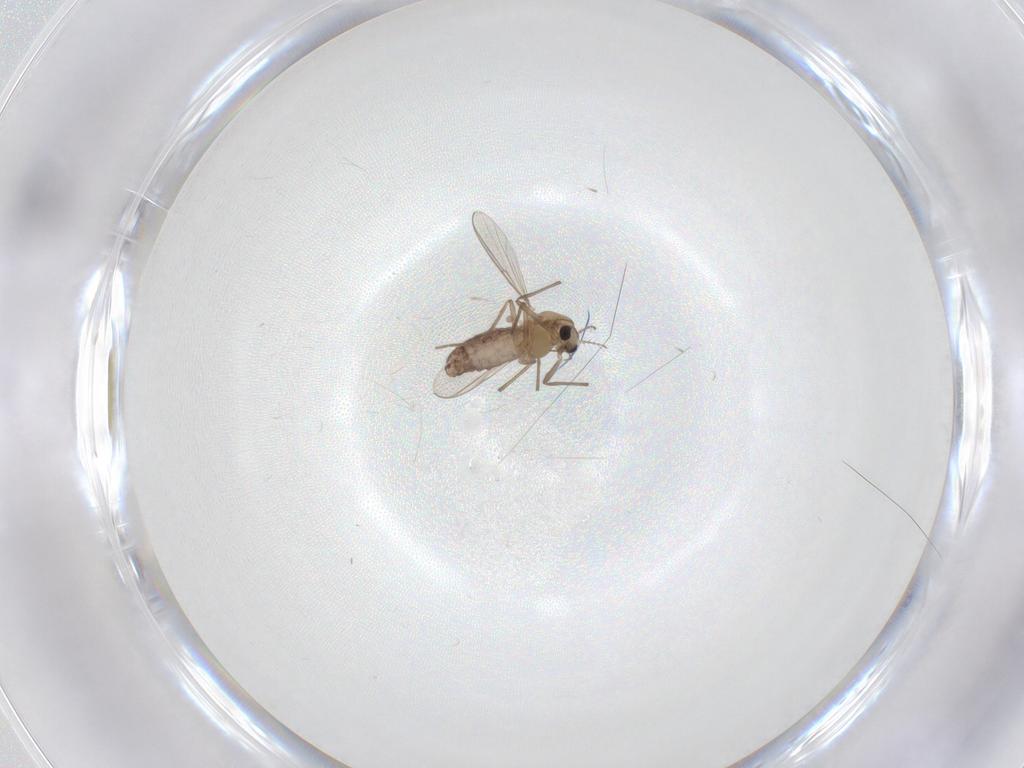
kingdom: Animalia
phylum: Arthropoda
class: Insecta
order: Diptera
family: Chironomidae
